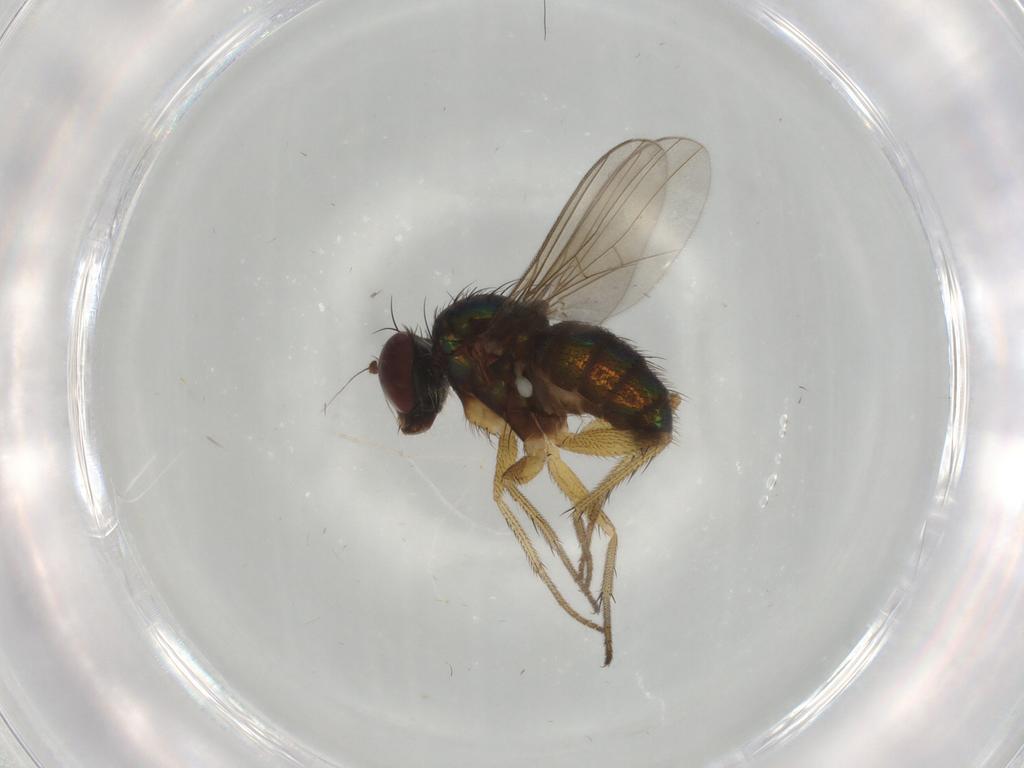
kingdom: Animalia
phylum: Arthropoda
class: Insecta
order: Diptera
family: Dolichopodidae
